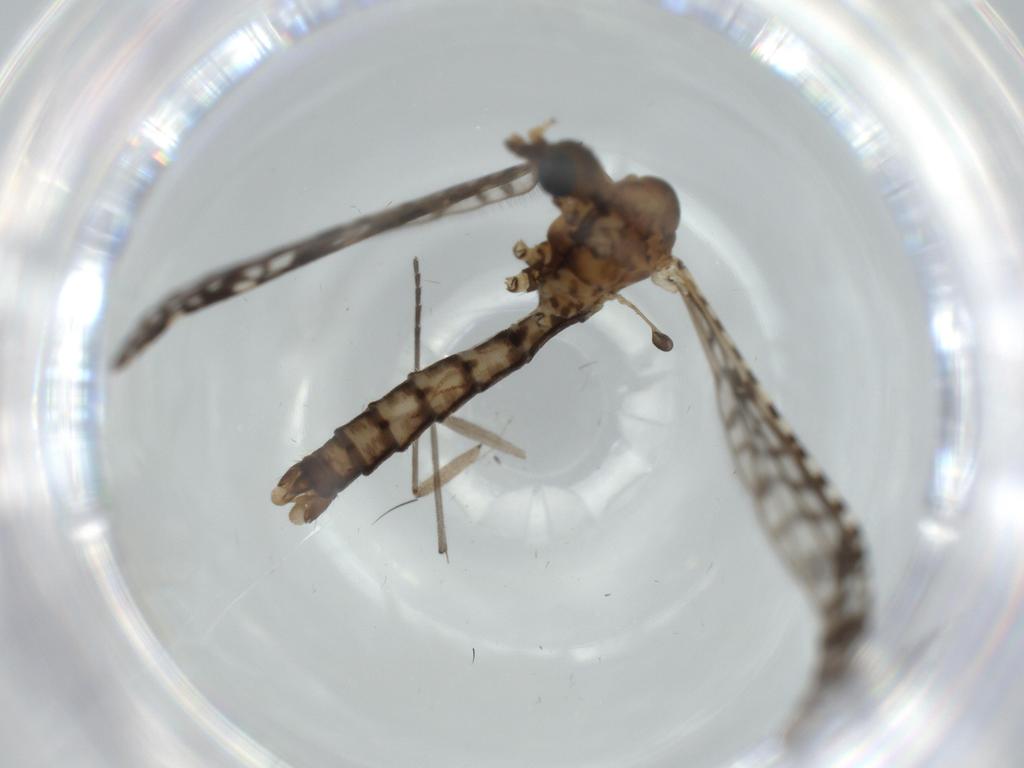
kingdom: Animalia
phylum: Arthropoda
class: Insecta
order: Diptera
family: Sciaridae
